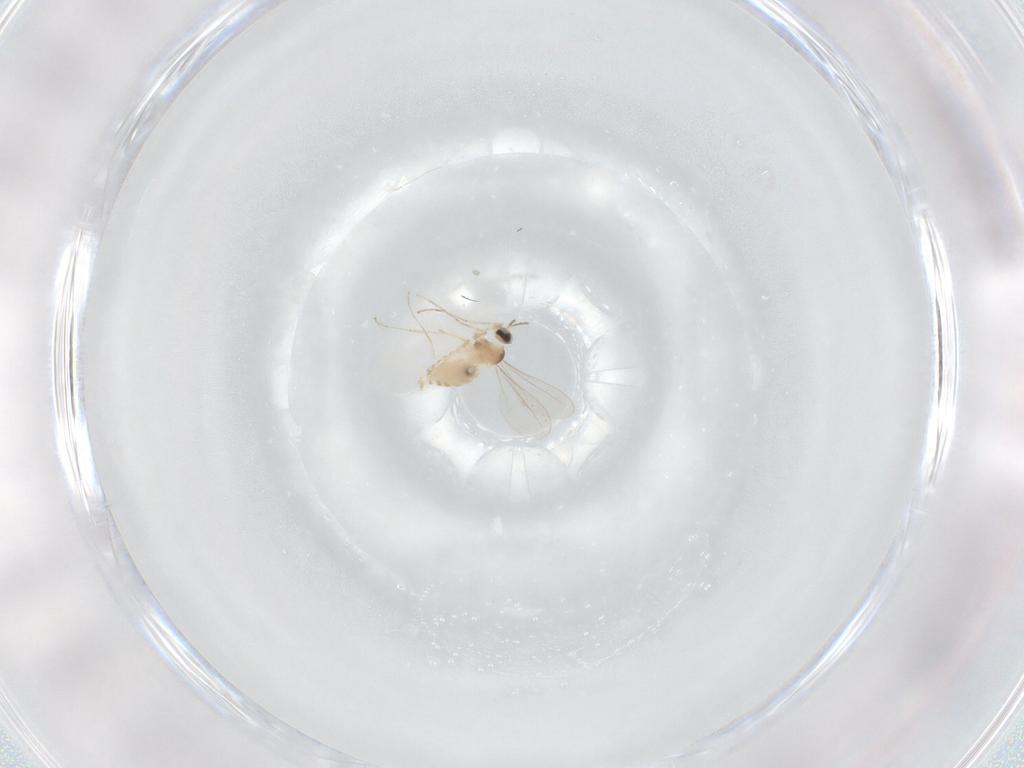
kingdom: Animalia
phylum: Arthropoda
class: Insecta
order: Diptera
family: Cecidomyiidae
